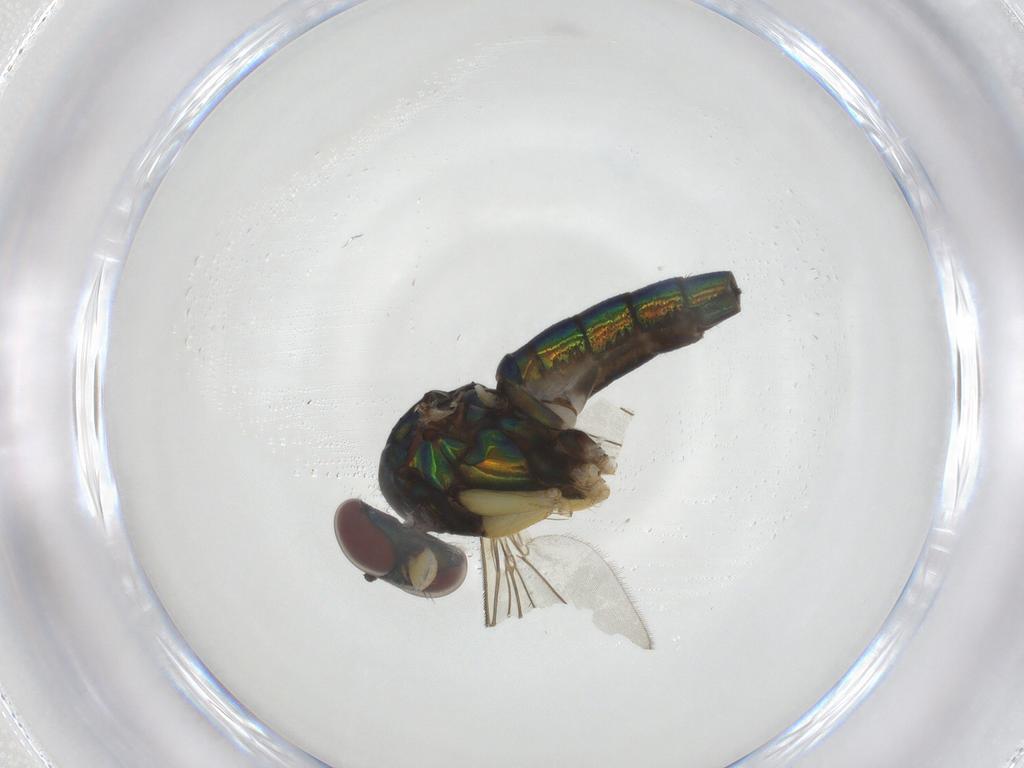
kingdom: Animalia
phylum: Arthropoda
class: Insecta
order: Diptera
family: Dolichopodidae
